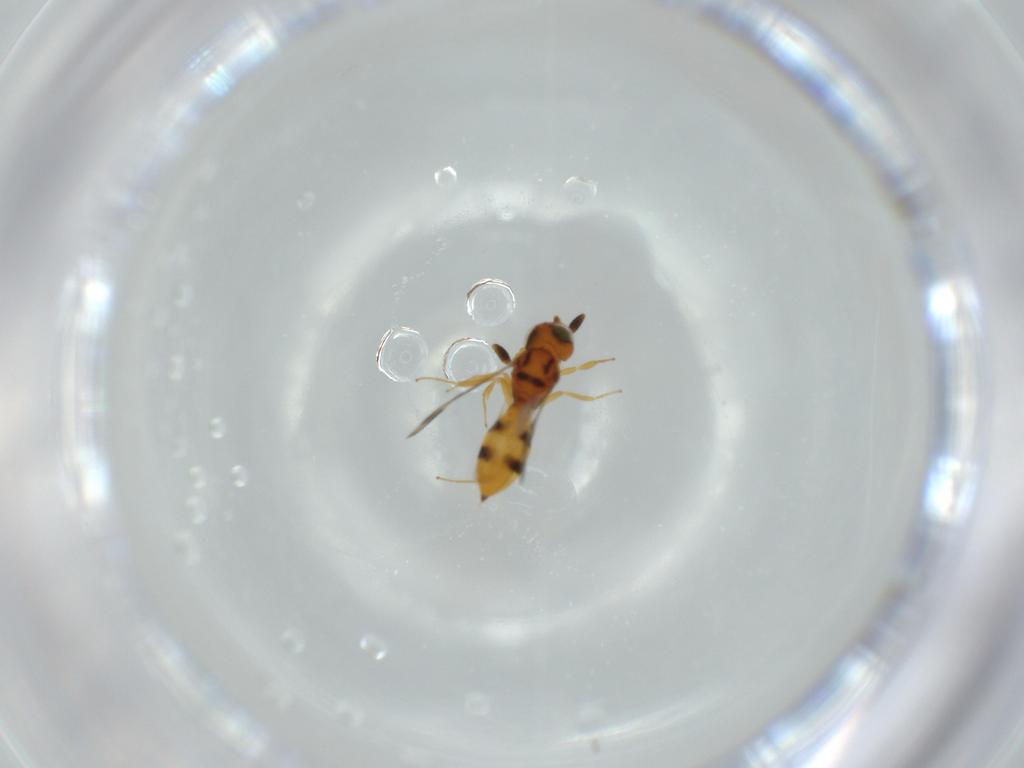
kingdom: Animalia
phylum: Arthropoda
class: Insecta
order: Hymenoptera
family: Scelionidae
